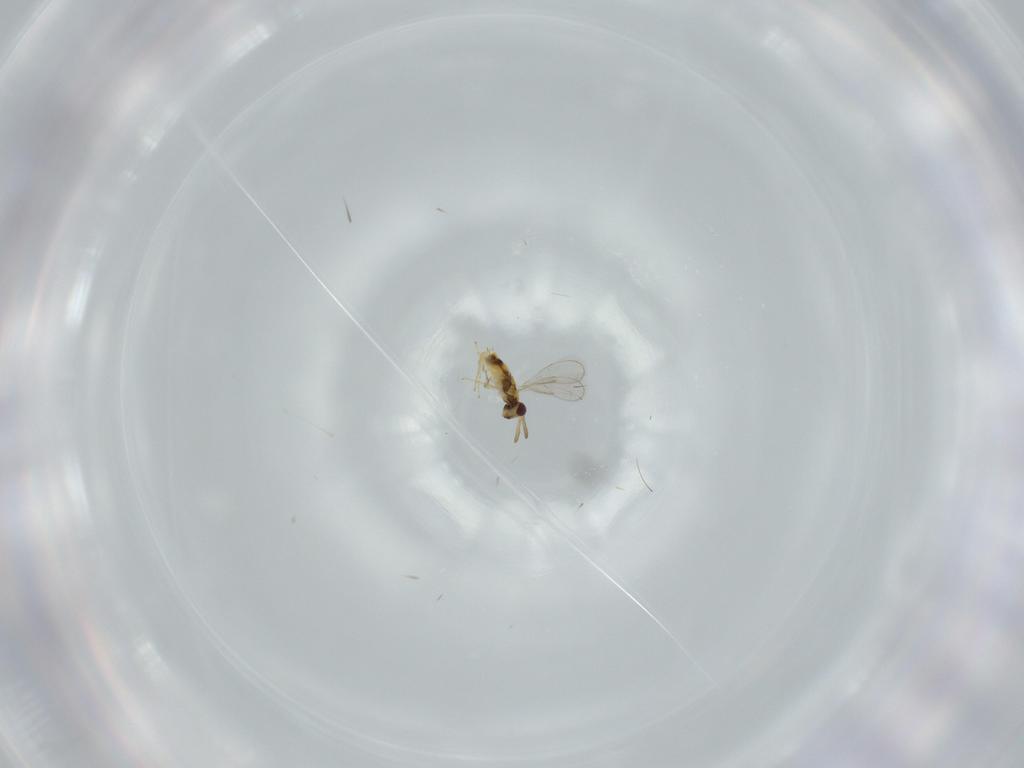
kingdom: Animalia
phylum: Arthropoda
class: Insecta
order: Hymenoptera
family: Aphelinidae
